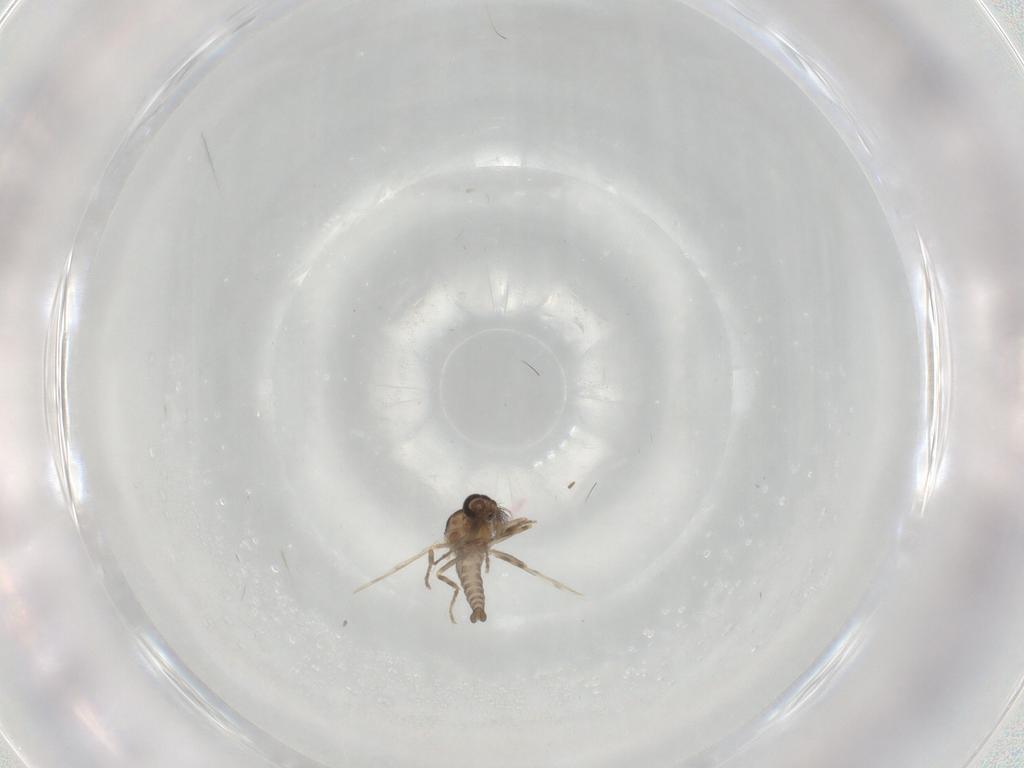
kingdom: Animalia
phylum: Arthropoda
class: Insecta
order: Diptera
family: Ceratopogonidae
